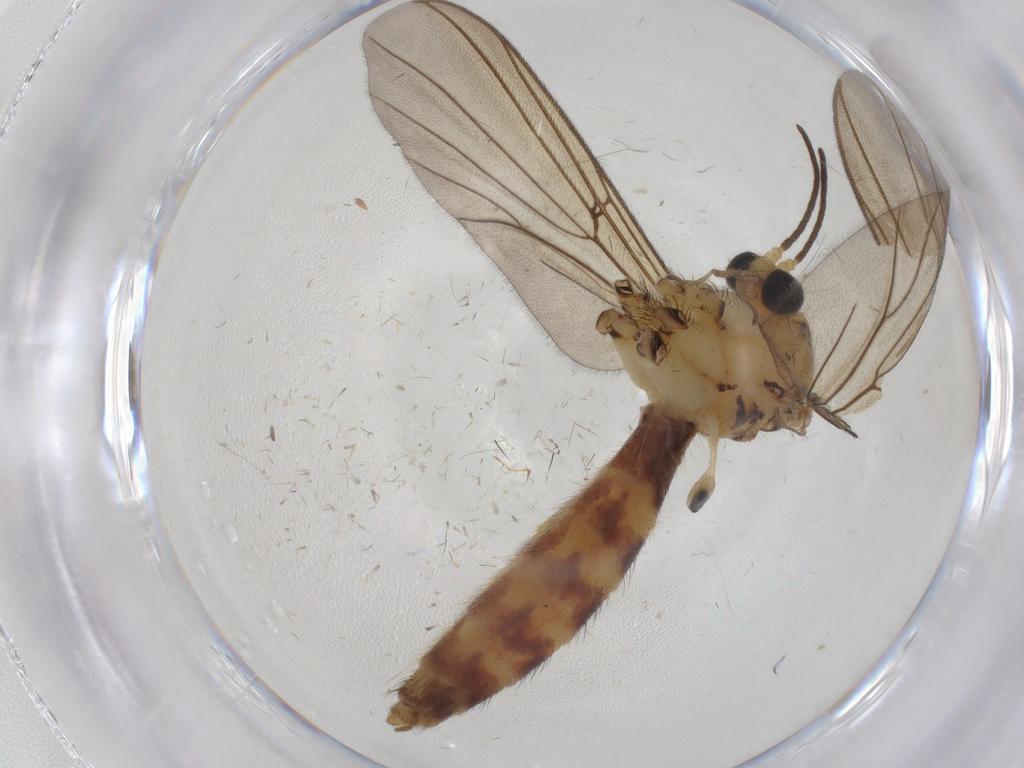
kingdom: Animalia
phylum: Arthropoda
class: Insecta
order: Diptera
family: Mycetophilidae
